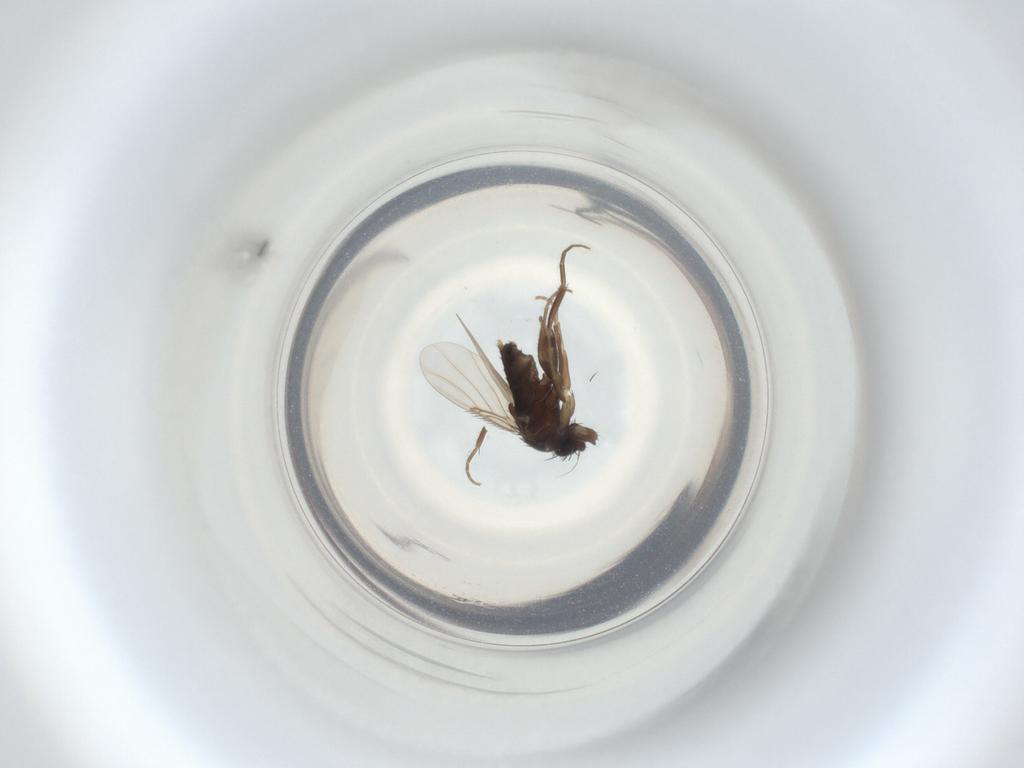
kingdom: Animalia
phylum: Arthropoda
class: Insecta
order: Diptera
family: Phoridae
